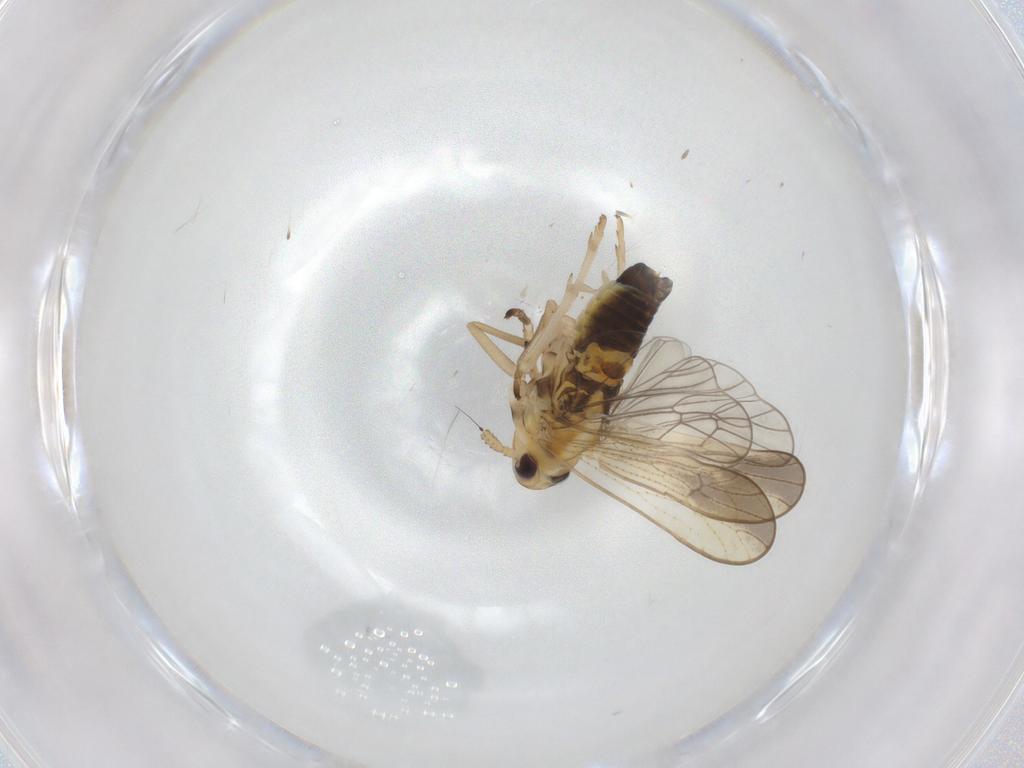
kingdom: Animalia
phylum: Arthropoda
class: Insecta
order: Hemiptera
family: Delphacidae
